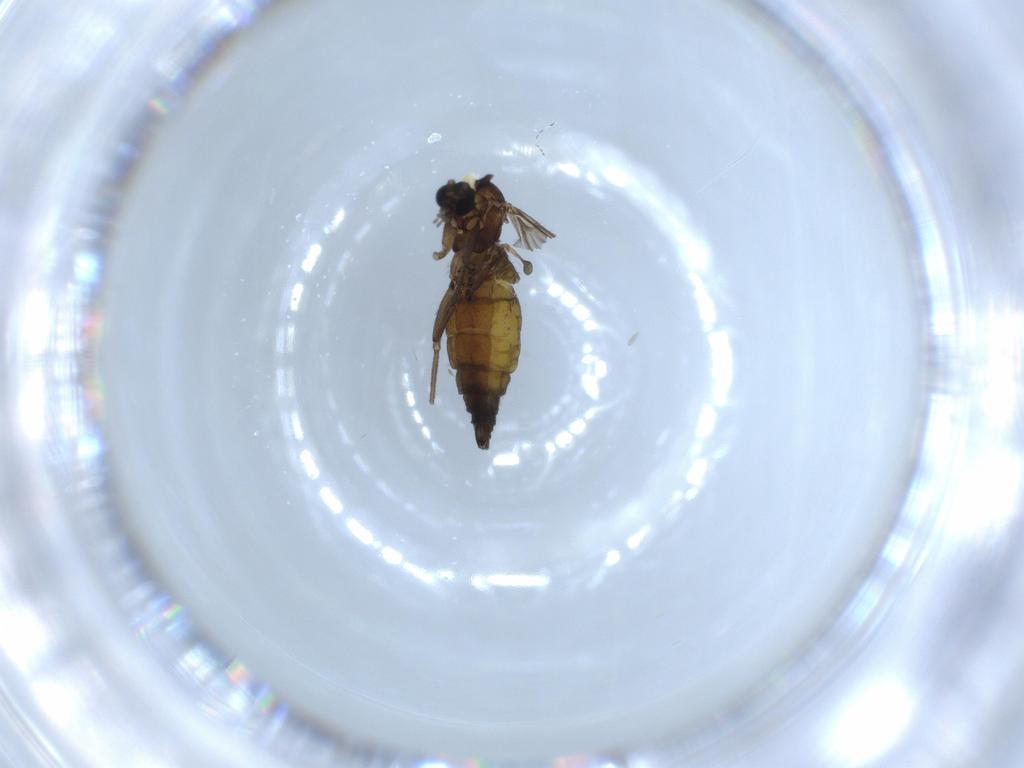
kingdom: Animalia
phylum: Arthropoda
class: Insecta
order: Diptera
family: Sciaridae
